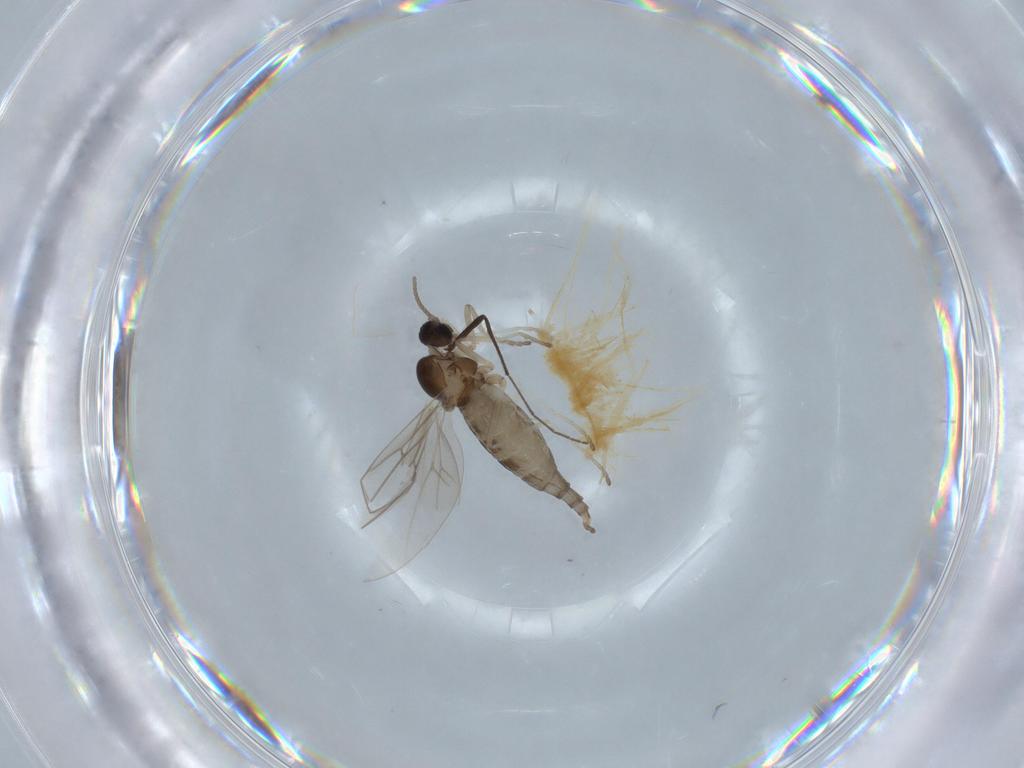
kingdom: Animalia
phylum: Arthropoda
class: Insecta
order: Diptera
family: Cecidomyiidae
